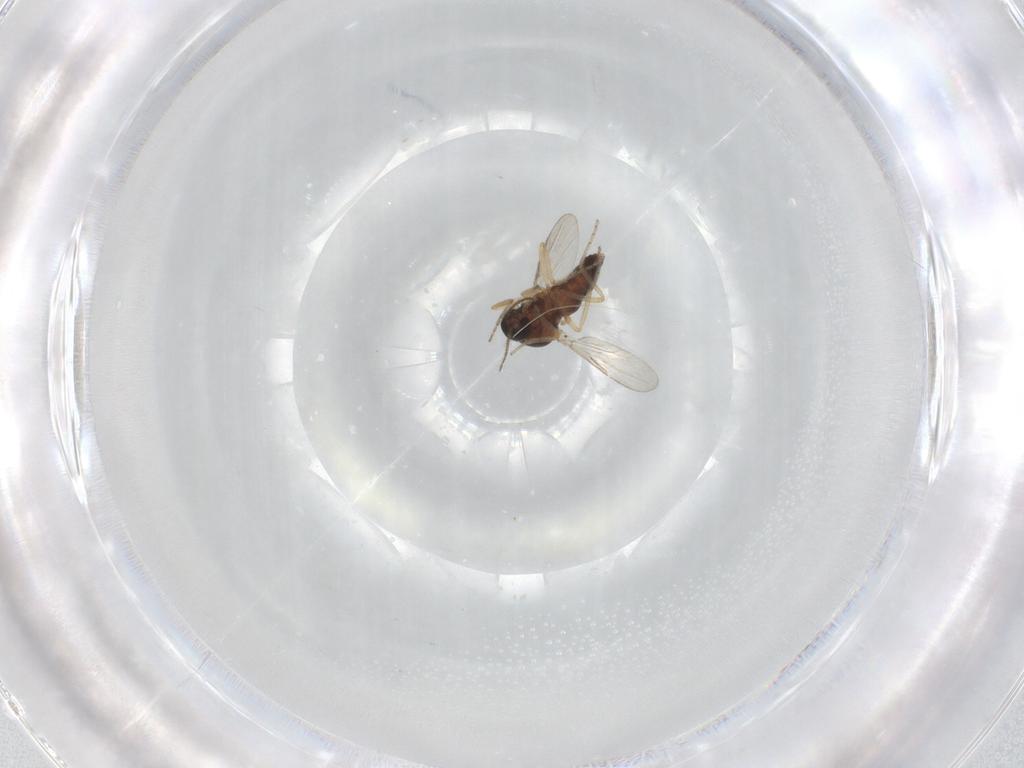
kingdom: Animalia
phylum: Arthropoda
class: Insecta
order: Diptera
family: Ceratopogonidae
